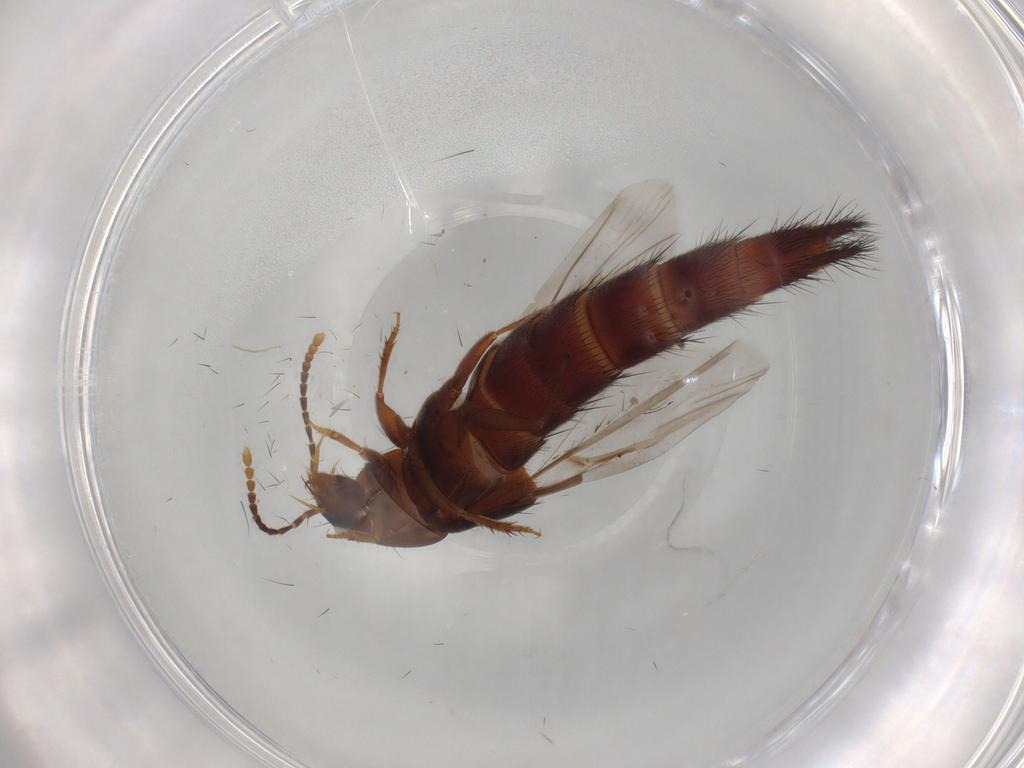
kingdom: Animalia
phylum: Arthropoda
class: Insecta
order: Coleoptera
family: Staphylinidae
